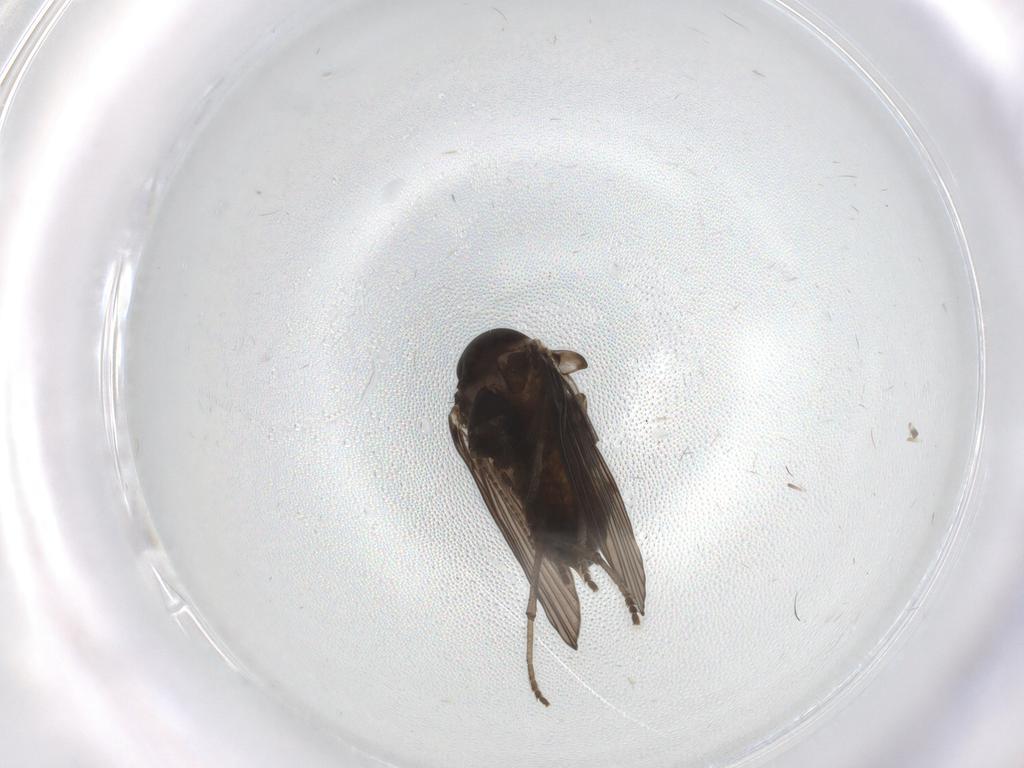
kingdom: Animalia
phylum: Arthropoda
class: Insecta
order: Diptera
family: Psychodidae
